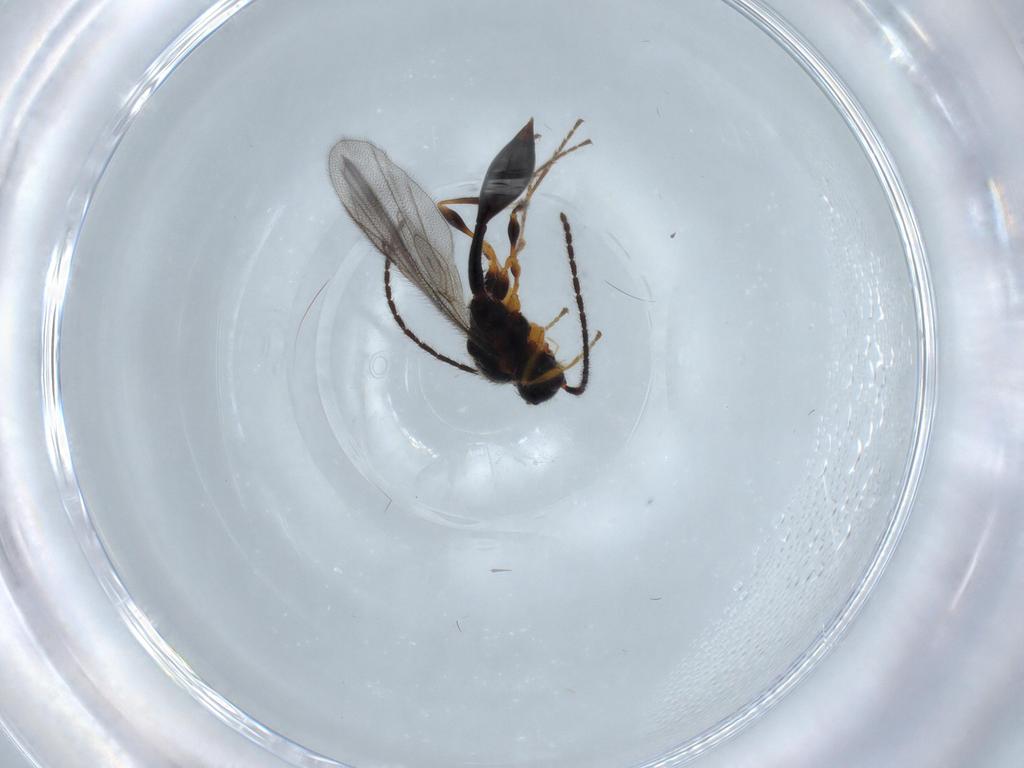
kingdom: Animalia
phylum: Arthropoda
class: Insecta
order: Hymenoptera
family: Diapriidae
